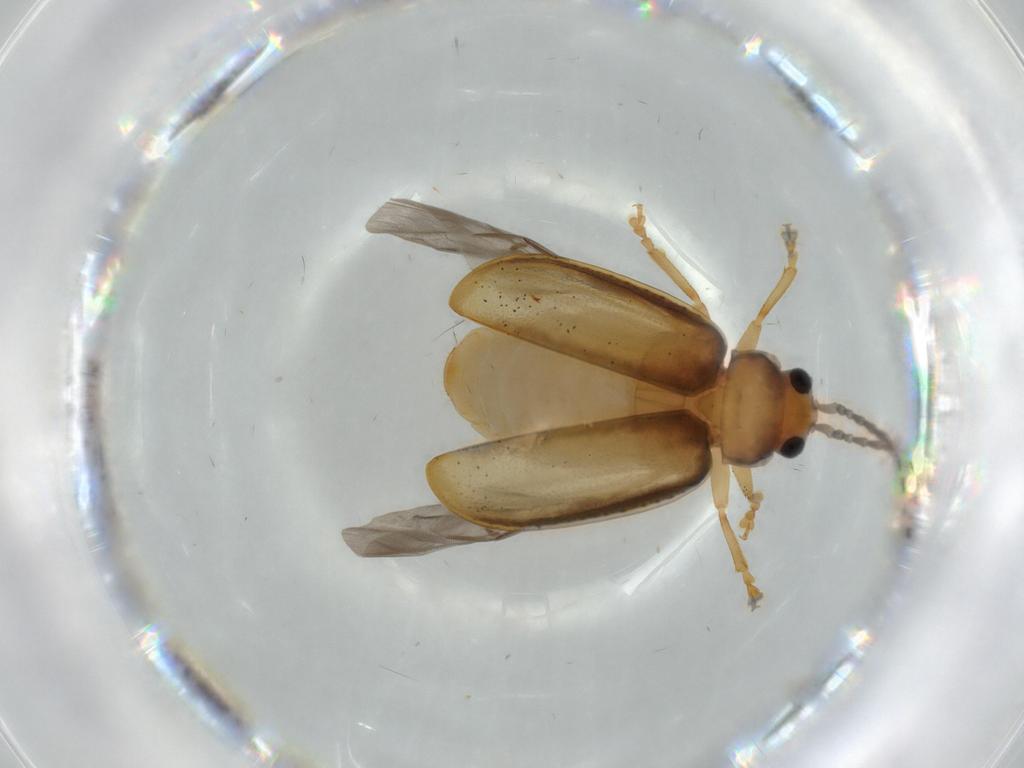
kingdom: Animalia
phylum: Arthropoda
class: Insecta
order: Coleoptera
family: Chrysomelidae
